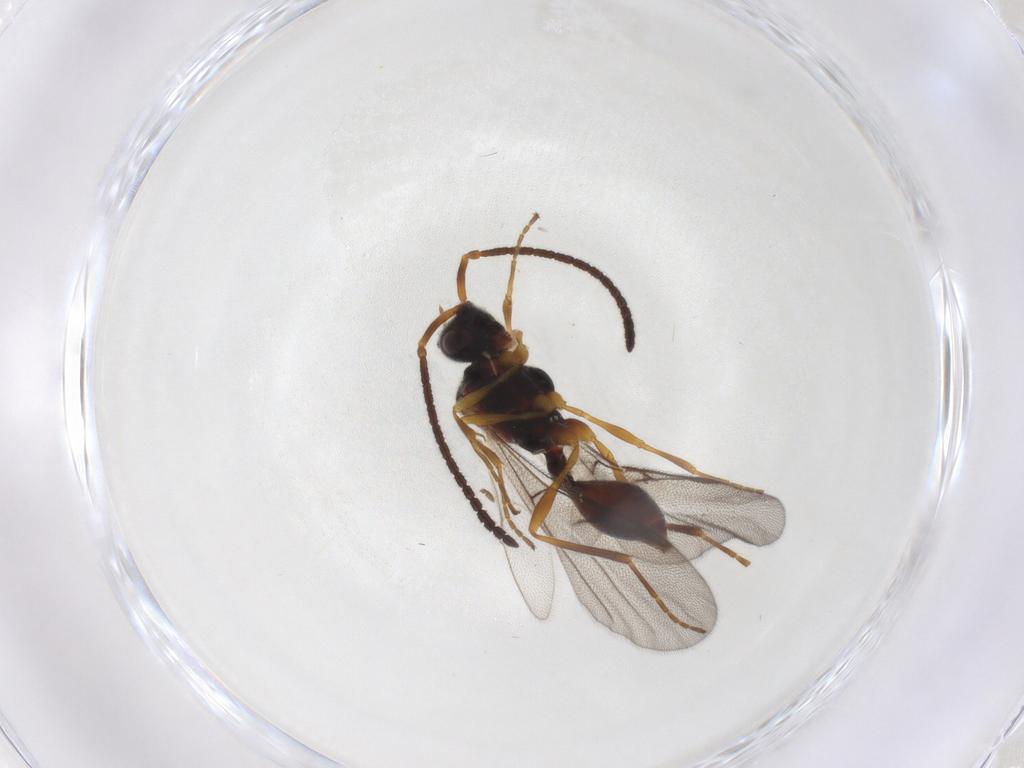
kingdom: Animalia
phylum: Arthropoda
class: Insecta
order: Hymenoptera
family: Diapriidae
